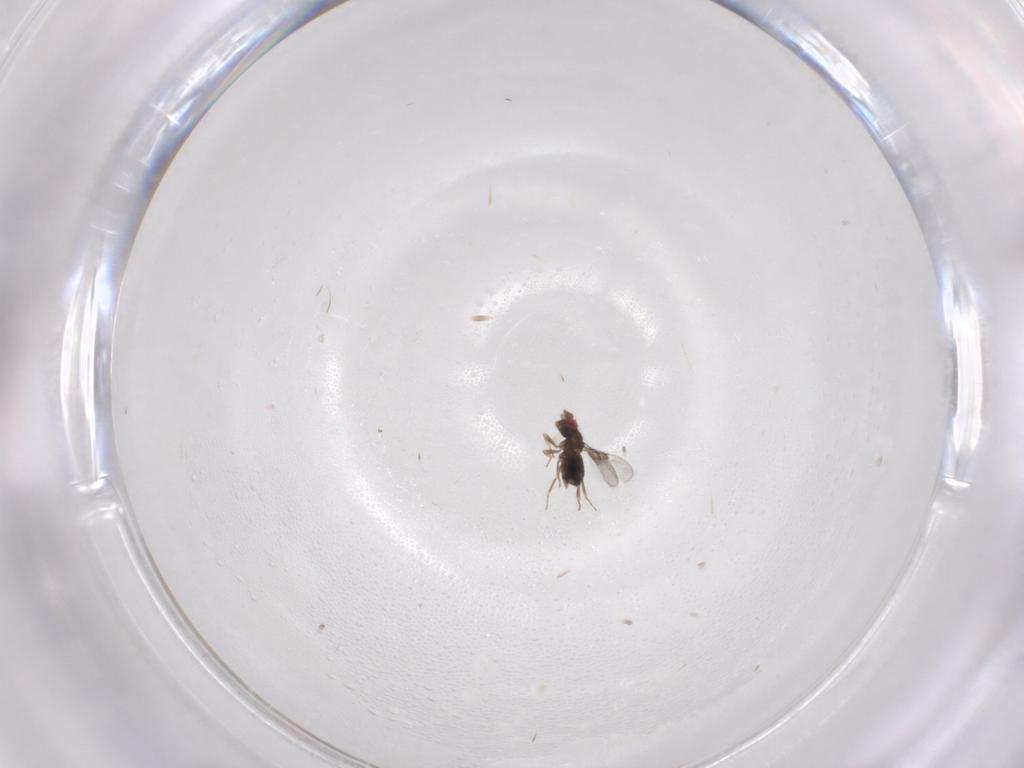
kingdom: Animalia
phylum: Arthropoda
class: Insecta
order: Hymenoptera
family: Trichogrammatidae
